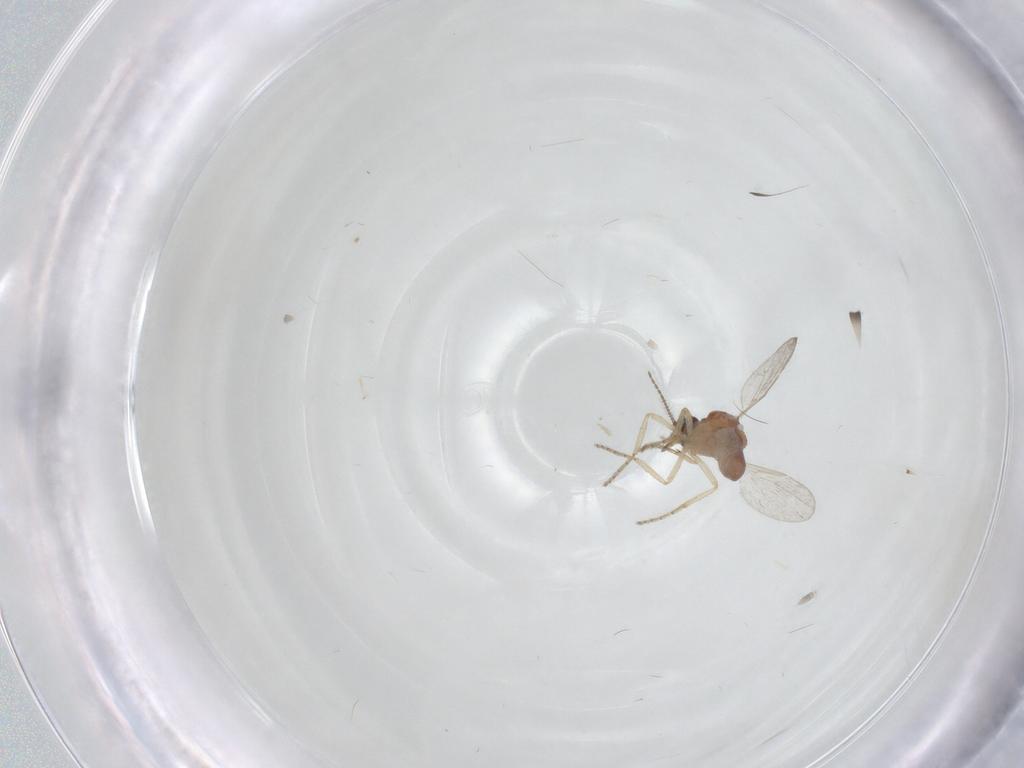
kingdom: Animalia
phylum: Arthropoda
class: Insecta
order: Diptera
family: Ceratopogonidae
